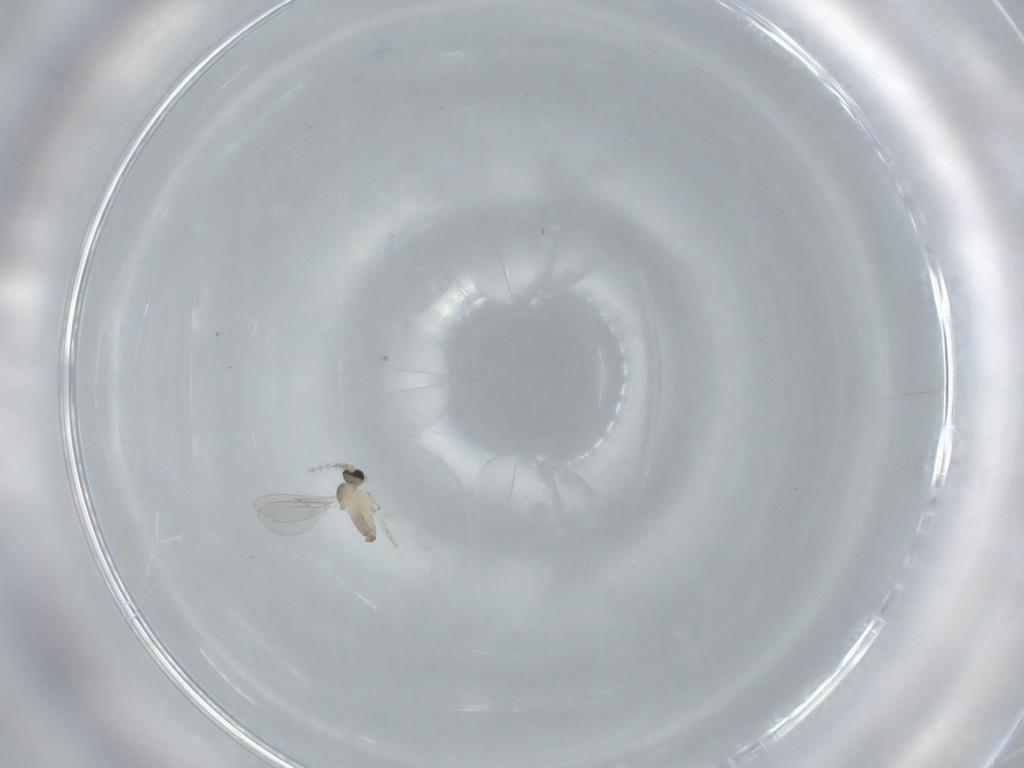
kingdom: Animalia
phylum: Arthropoda
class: Insecta
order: Diptera
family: Cecidomyiidae
